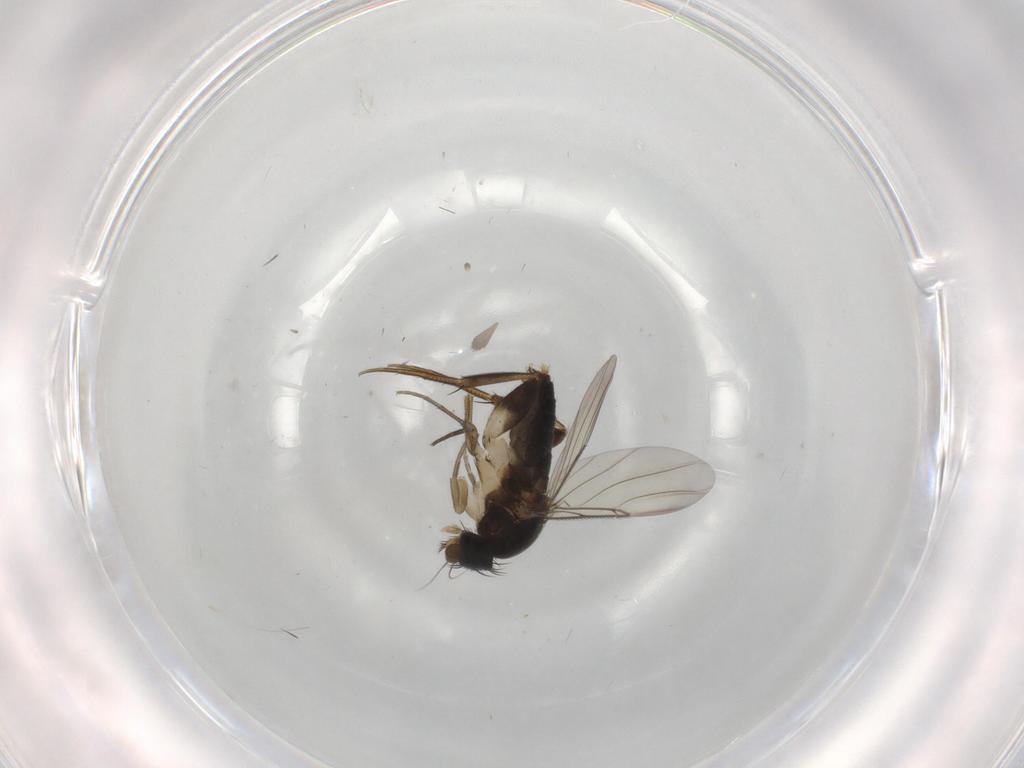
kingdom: Animalia
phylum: Arthropoda
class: Insecta
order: Diptera
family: Phoridae
